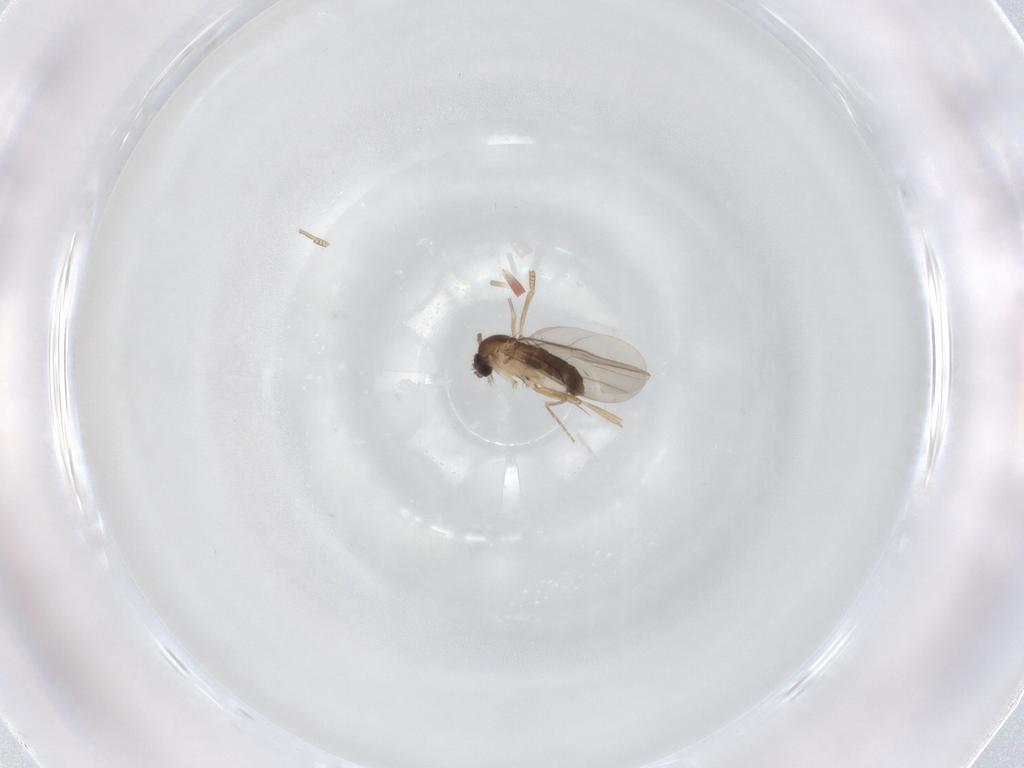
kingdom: Animalia
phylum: Arthropoda
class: Insecta
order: Diptera
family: Phoridae
